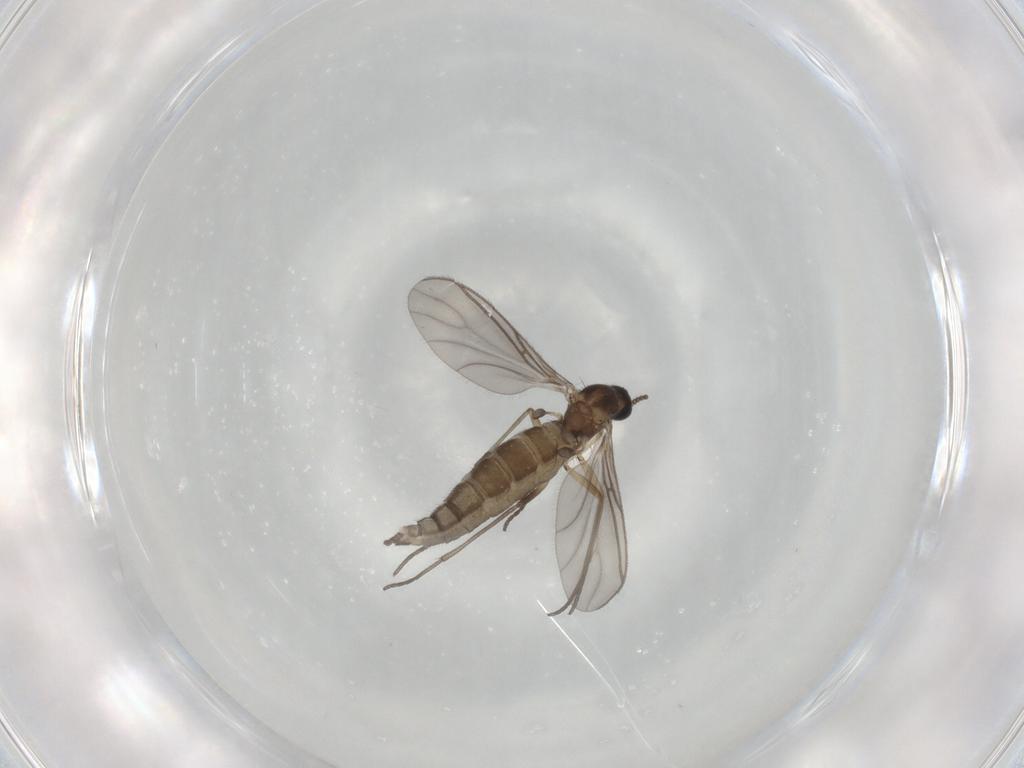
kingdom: Animalia
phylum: Arthropoda
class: Insecta
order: Diptera
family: Sciaridae
